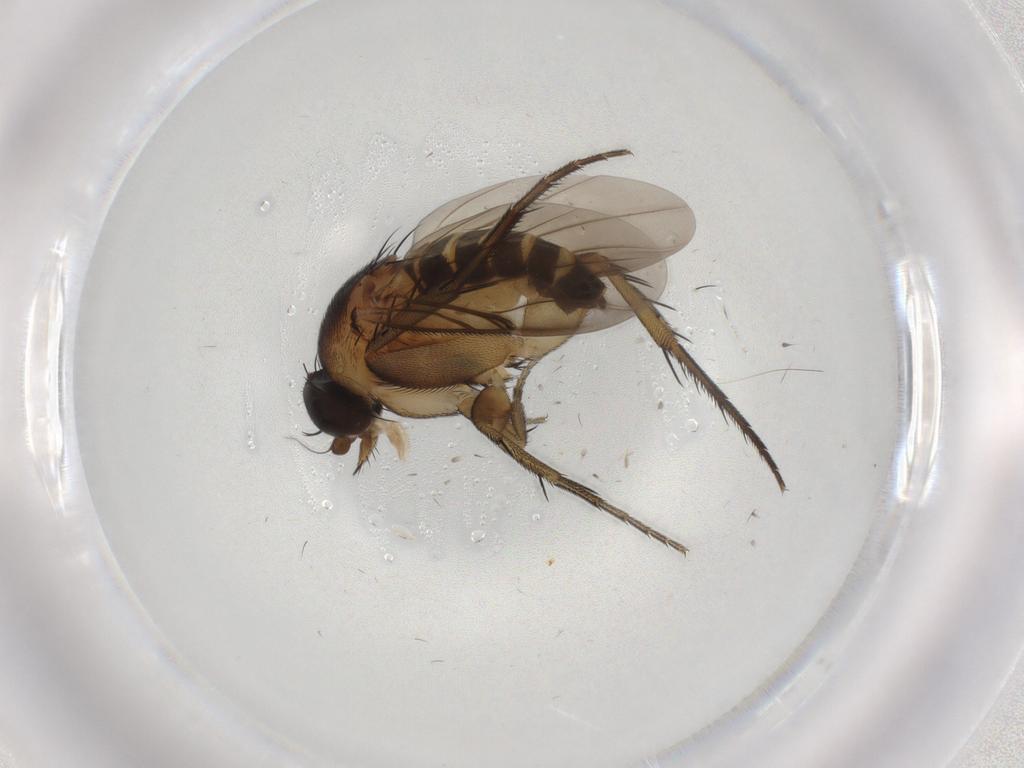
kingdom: Animalia
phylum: Arthropoda
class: Insecta
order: Diptera
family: Phoridae
